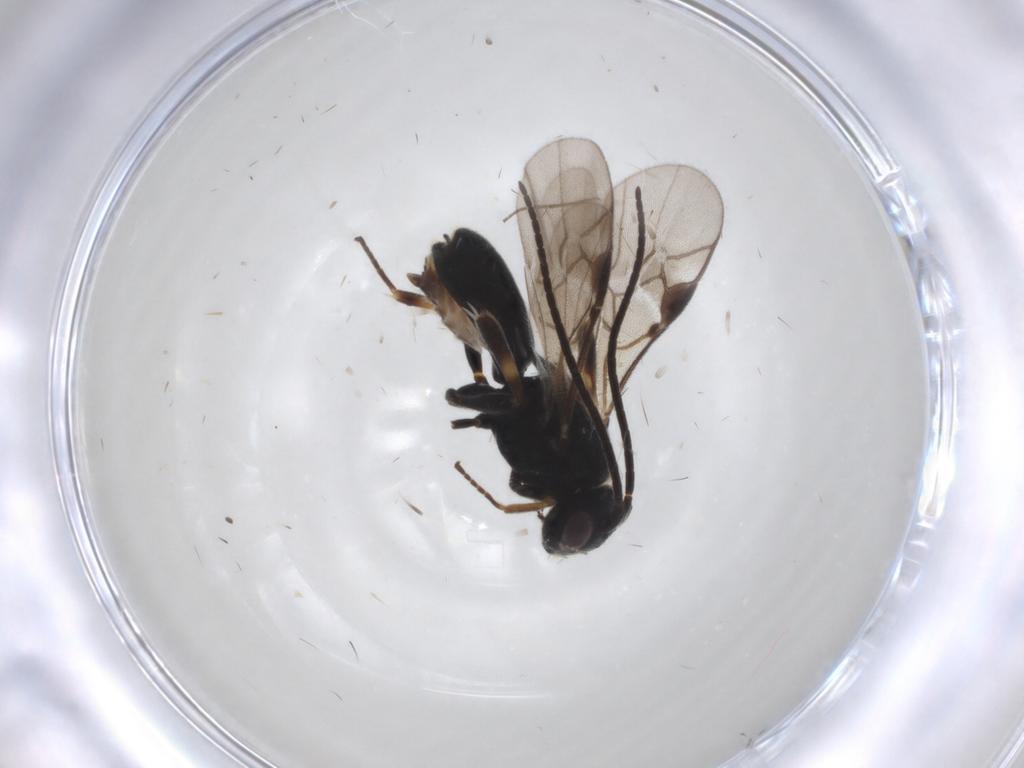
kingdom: Animalia
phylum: Arthropoda
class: Insecta
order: Hymenoptera
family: Braconidae
